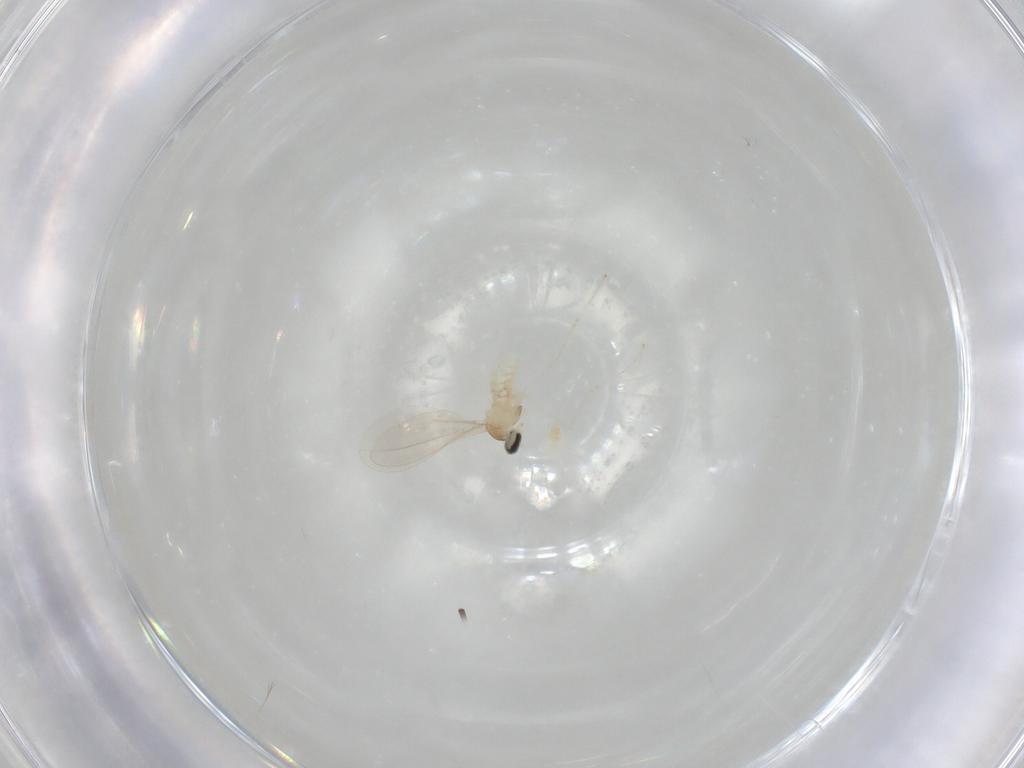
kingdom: Animalia
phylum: Arthropoda
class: Insecta
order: Diptera
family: Cecidomyiidae
